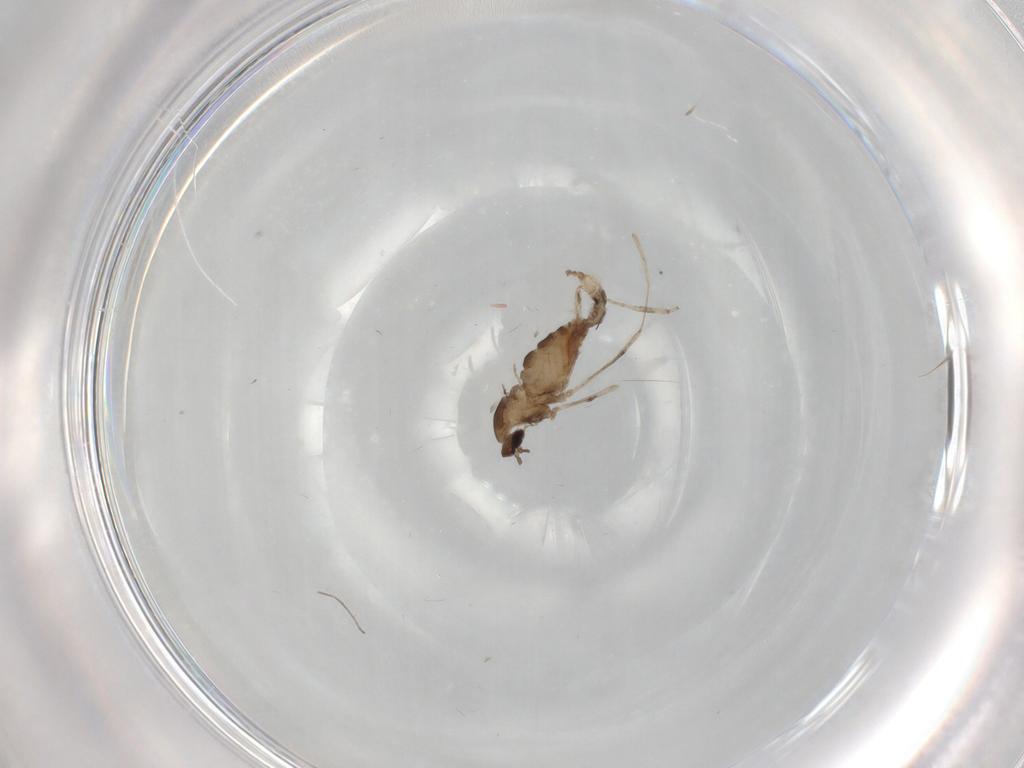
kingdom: Animalia
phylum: Arthropoda
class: Insecta
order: Diptera
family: Cecidomyiidae
